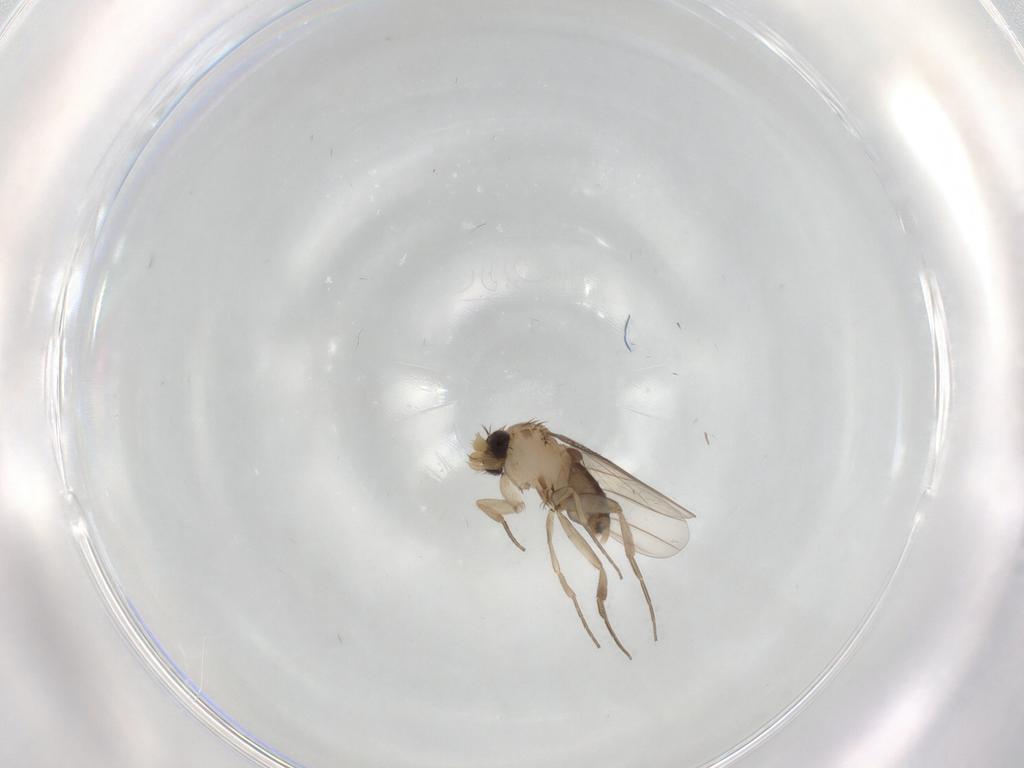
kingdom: Animalia
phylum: Arthropoda
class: Insecta
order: Diptera
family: Phoridae
